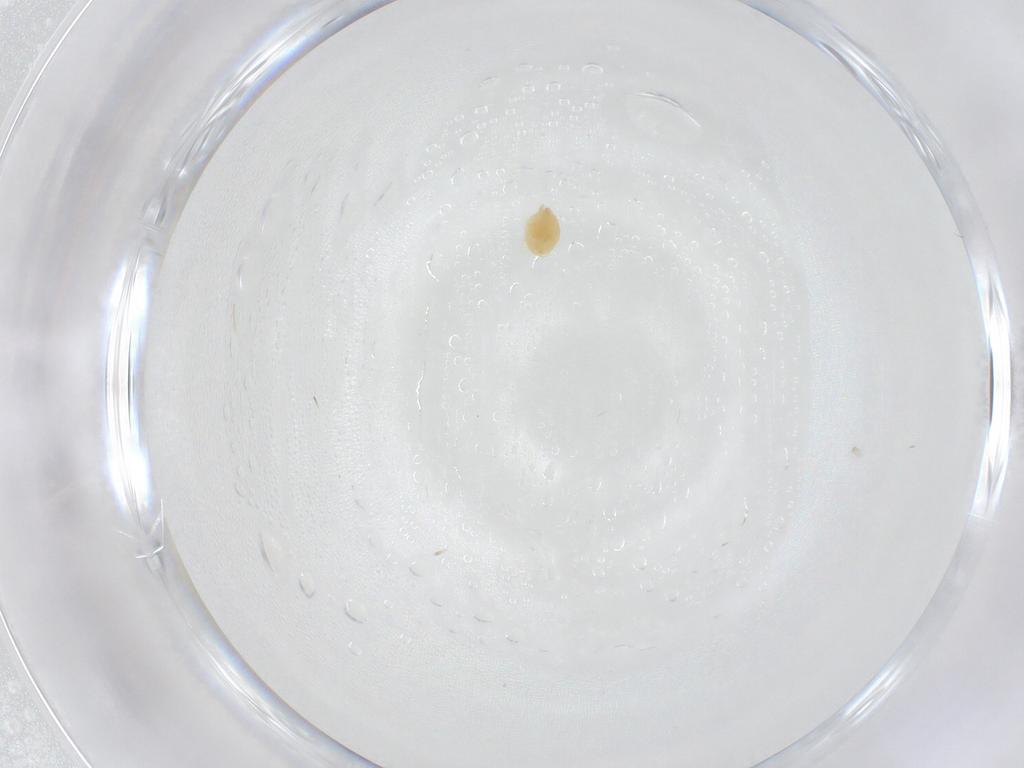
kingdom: Animalia
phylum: Arthropoda
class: Arachnida
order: Trombidiformes
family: Tetranychidae
